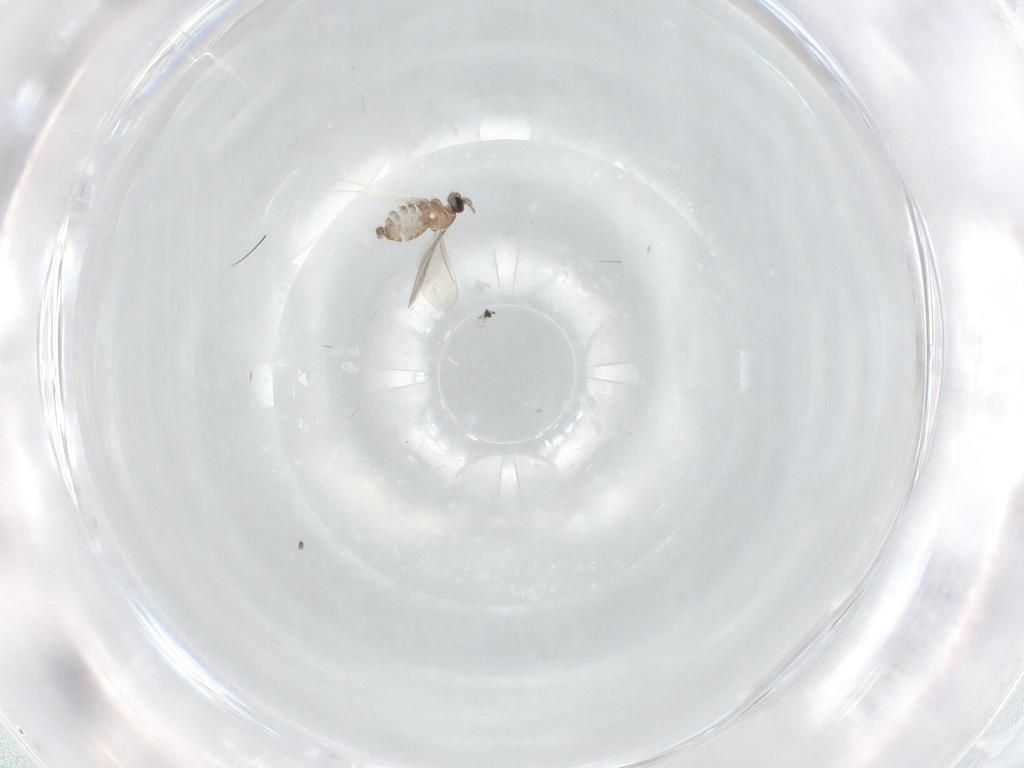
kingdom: Animalia
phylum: Arthropoda
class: Insecta
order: Diptera
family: Cecidomyiidae
